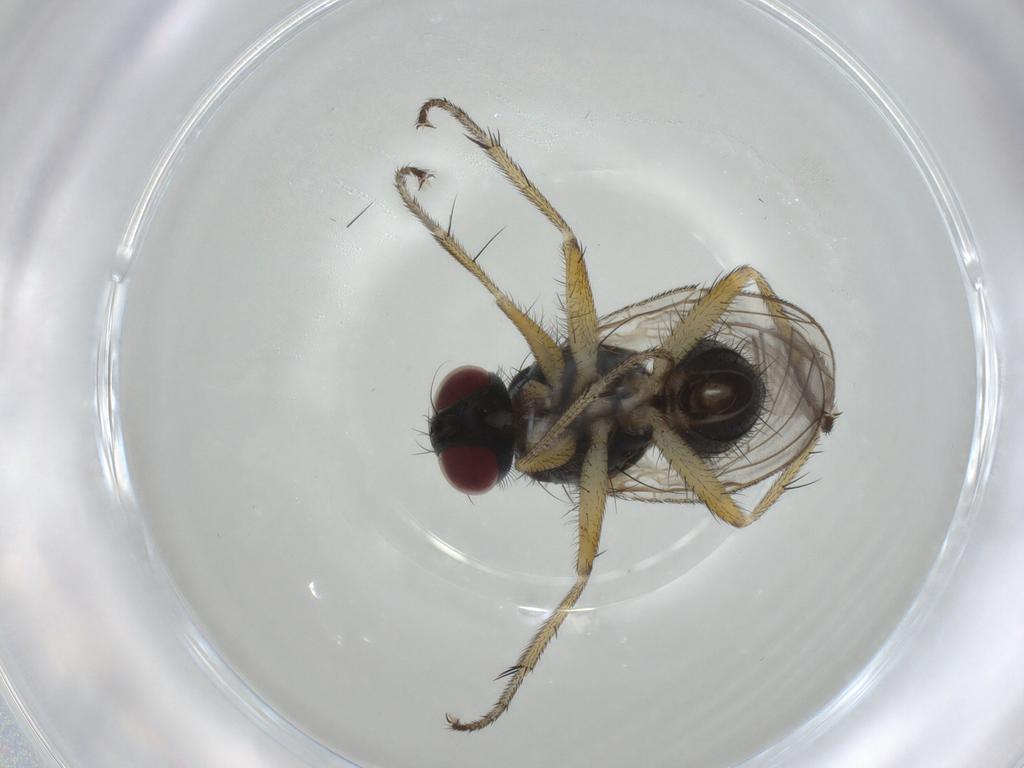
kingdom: Animalia
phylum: Arthropoda
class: Insecta
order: Diptera
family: Muscidae
